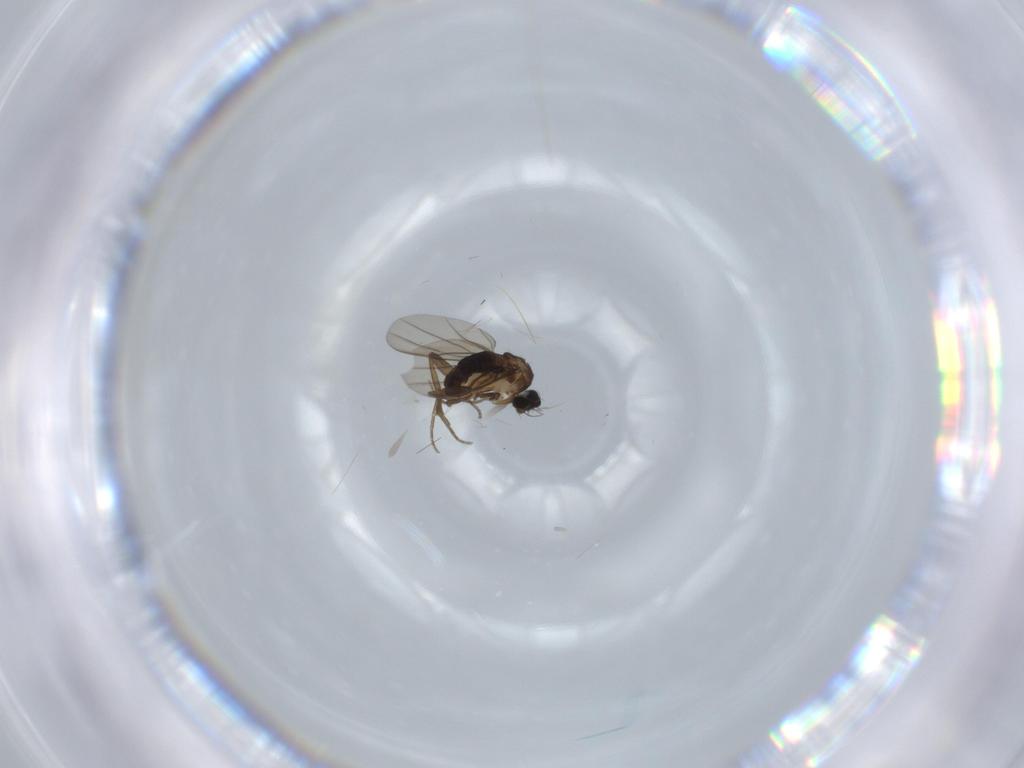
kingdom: Animalia
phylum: Arthropoda
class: Insecta
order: Diptera
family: Phoridae
